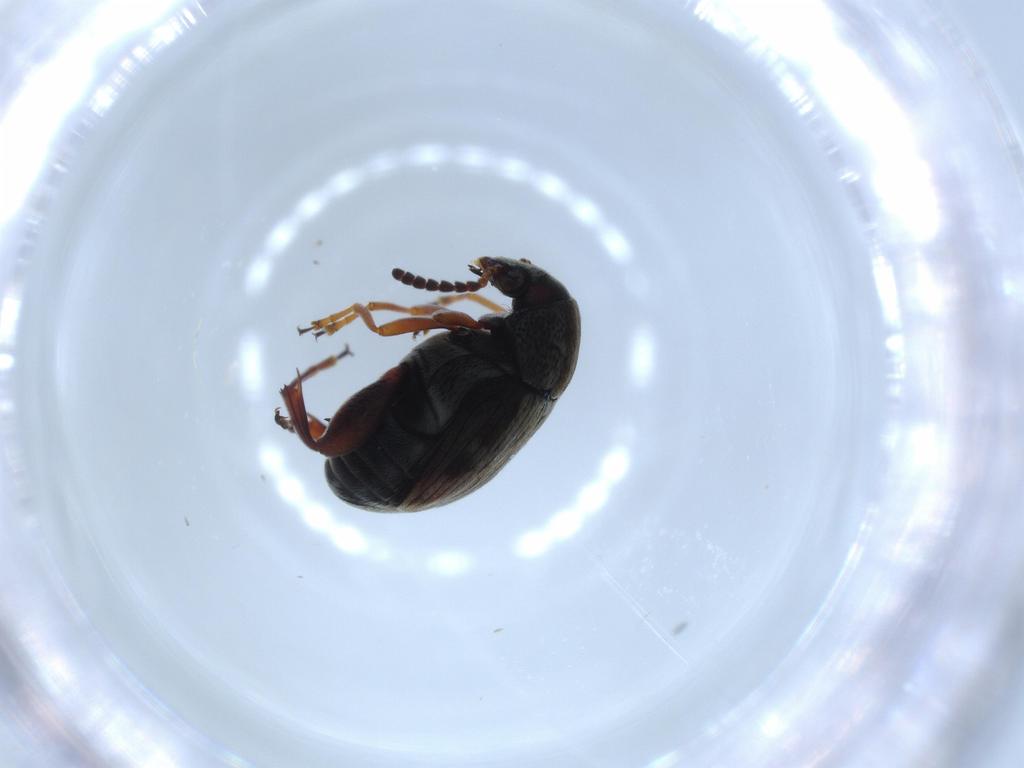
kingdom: Animalia
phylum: Arthropoda
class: Insecta
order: Coleoptera
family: Chrysomelidae
